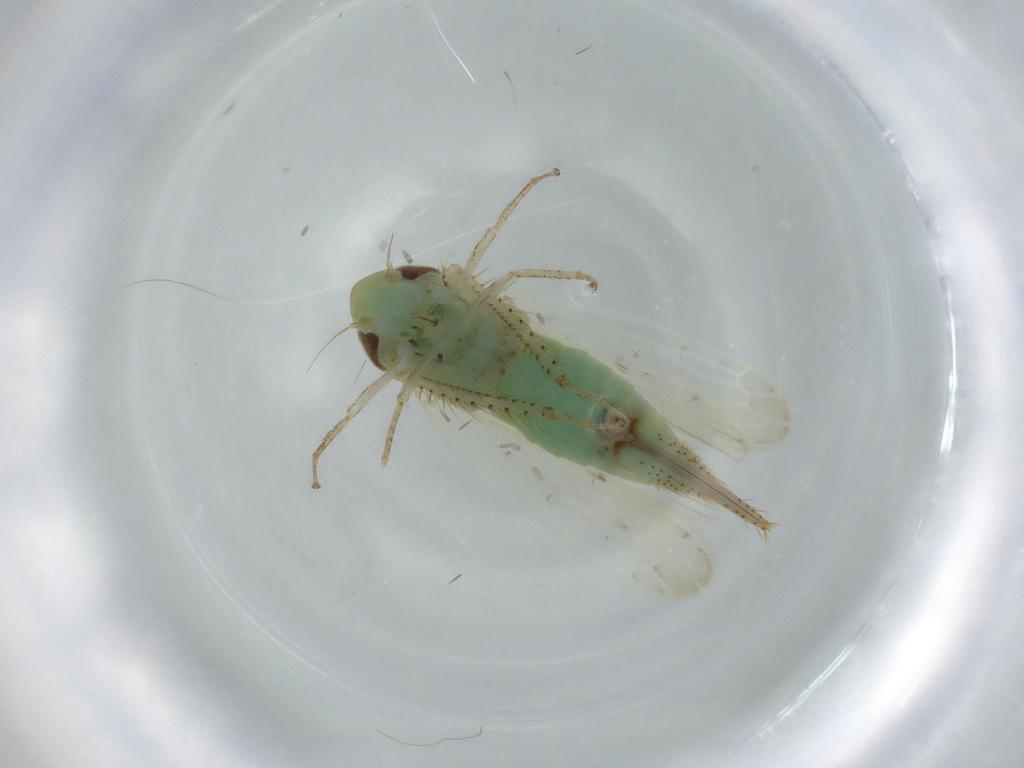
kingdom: Animalia
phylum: Arthropoda
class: Insecta
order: Hemiptera
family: Cicadellidae
